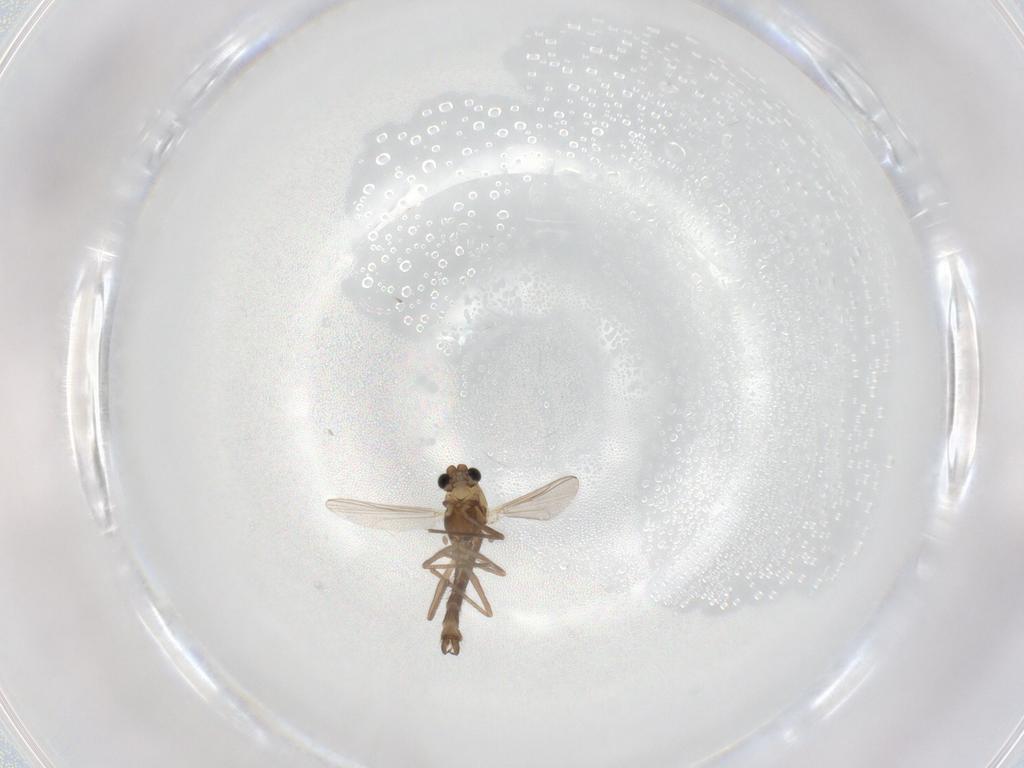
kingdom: Animalia
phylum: Arthropoda
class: Insecta
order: Diptera
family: Chironomidae
